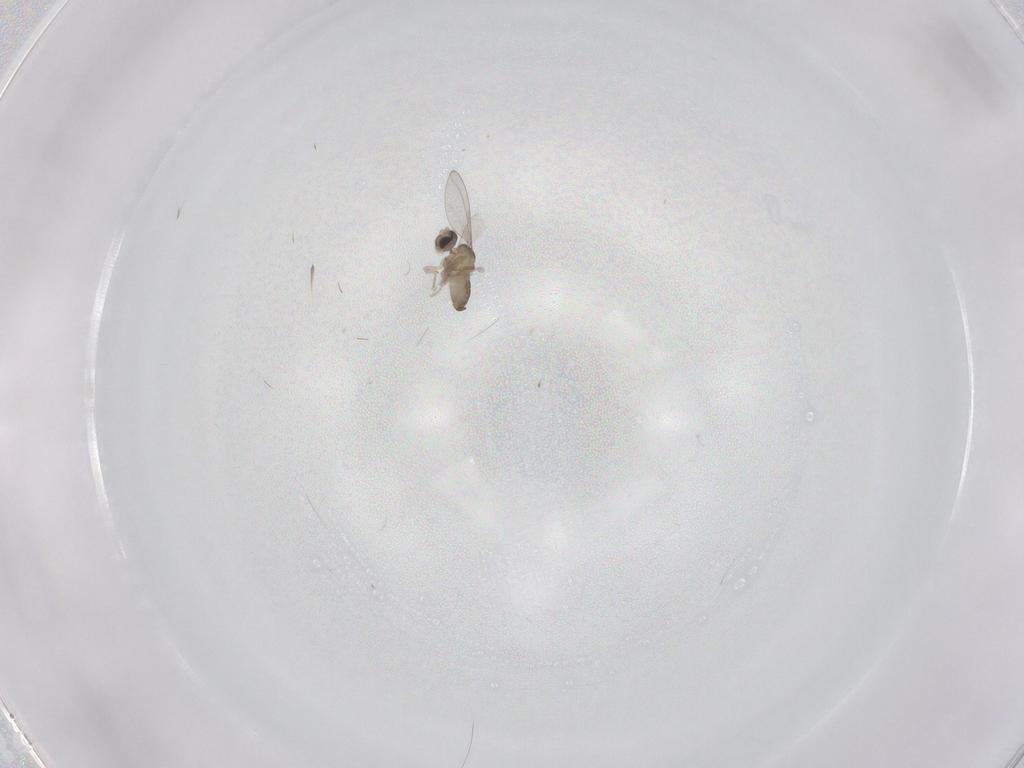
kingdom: Animalia
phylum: Arthropoda
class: Insecta
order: Diptera
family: Cecidomyiidae
